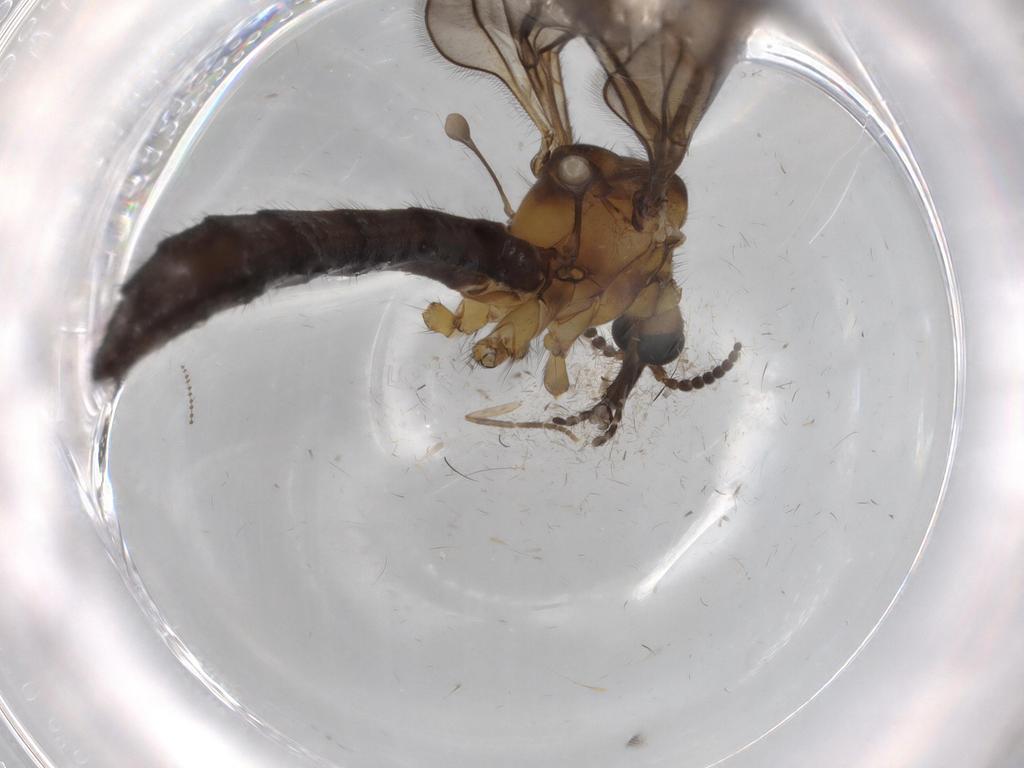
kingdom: Animalia
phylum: Arthropoda
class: Insecta
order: Diptera
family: Limoniidae
